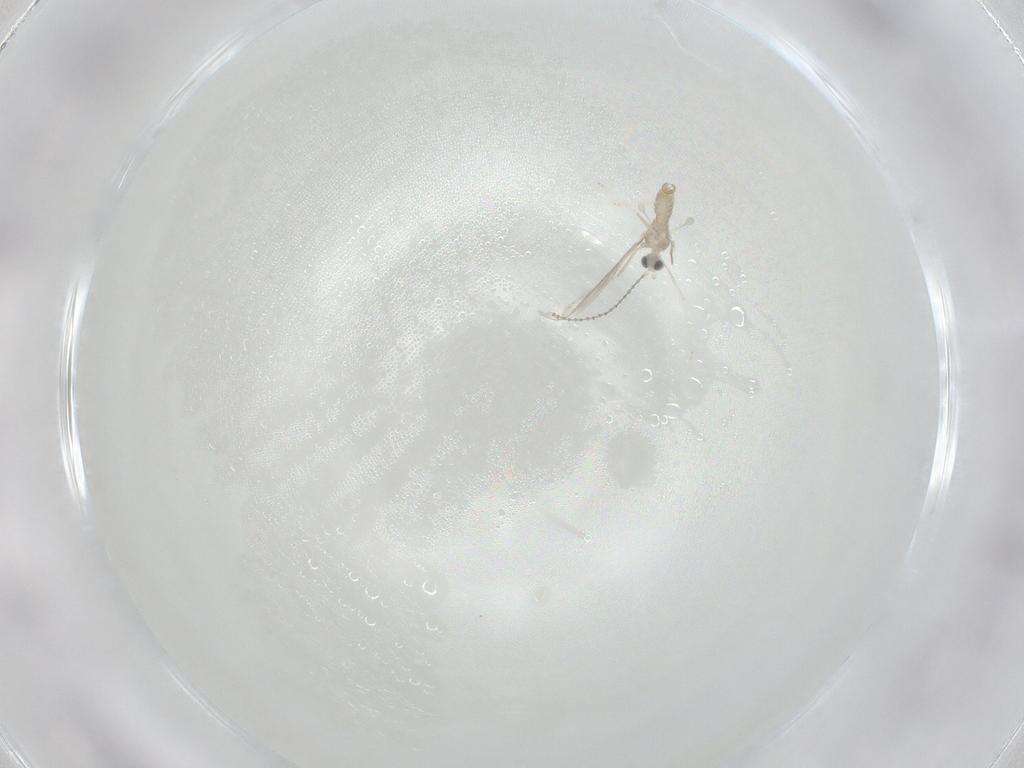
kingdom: Animalia
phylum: Arthropoda
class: Insecta
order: Diptera
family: Cecidomyiidae
